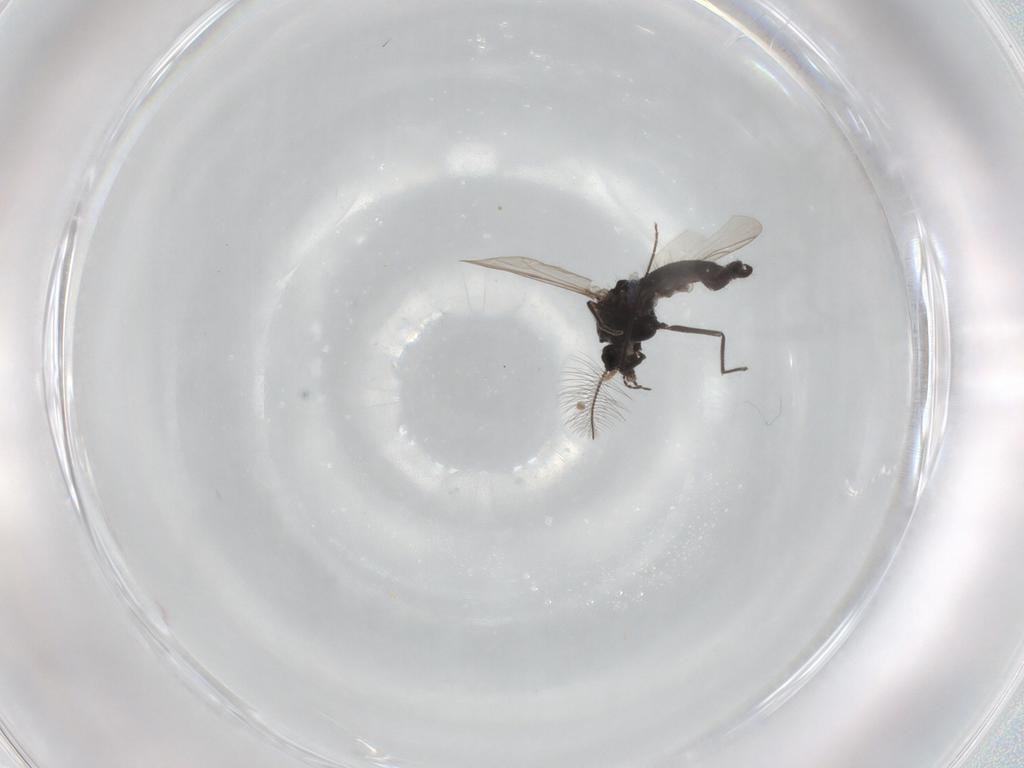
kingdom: Animalia
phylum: Arthropoda
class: Insecta
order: Diptera
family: Chironomidae
